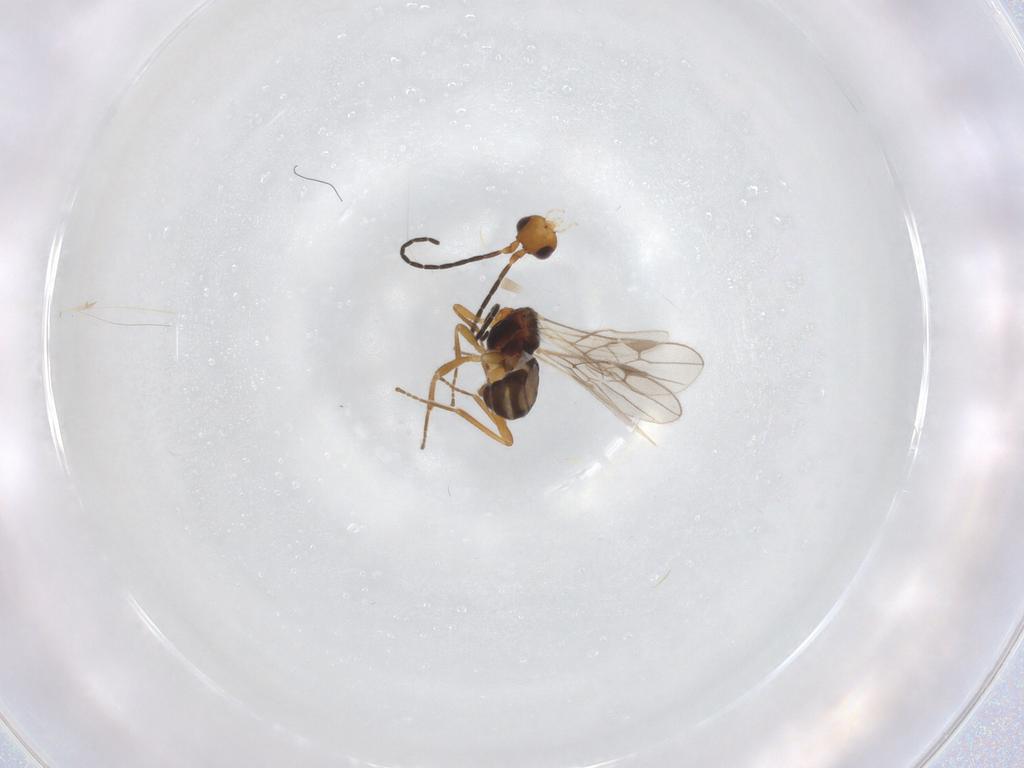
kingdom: Animalia
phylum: Arthropoda
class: Insecta
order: Hymenoptera
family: Braconidae
